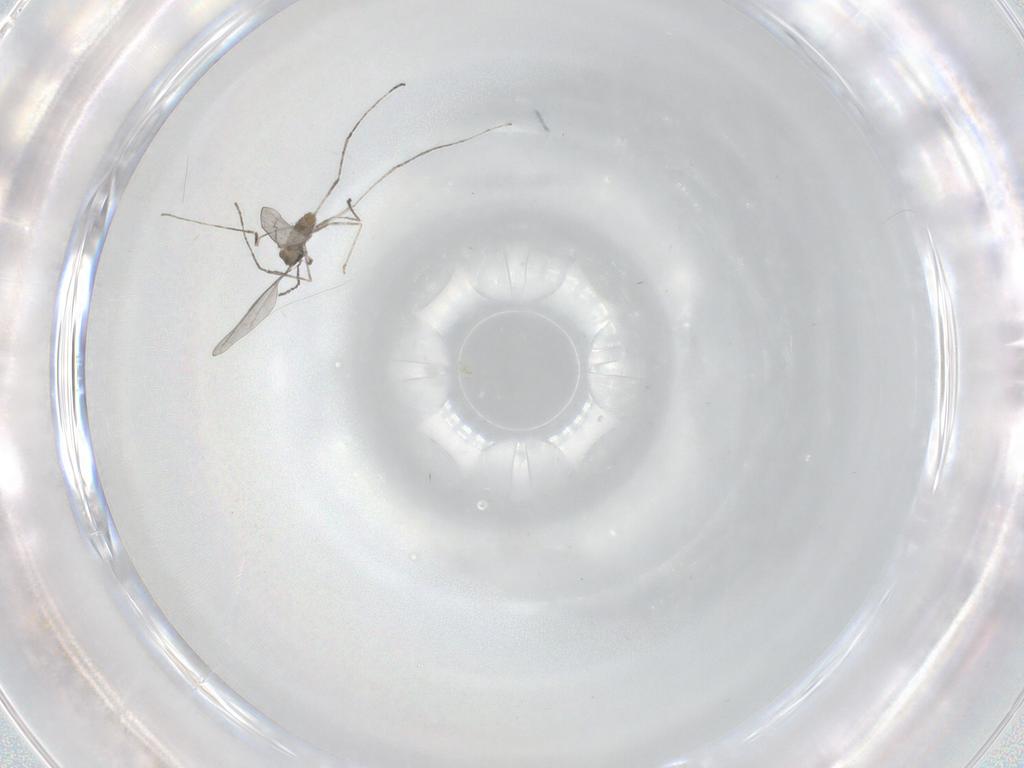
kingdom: Animalia
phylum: Arthropoda
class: Insecta
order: Diptera
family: Cecidomyiidae
